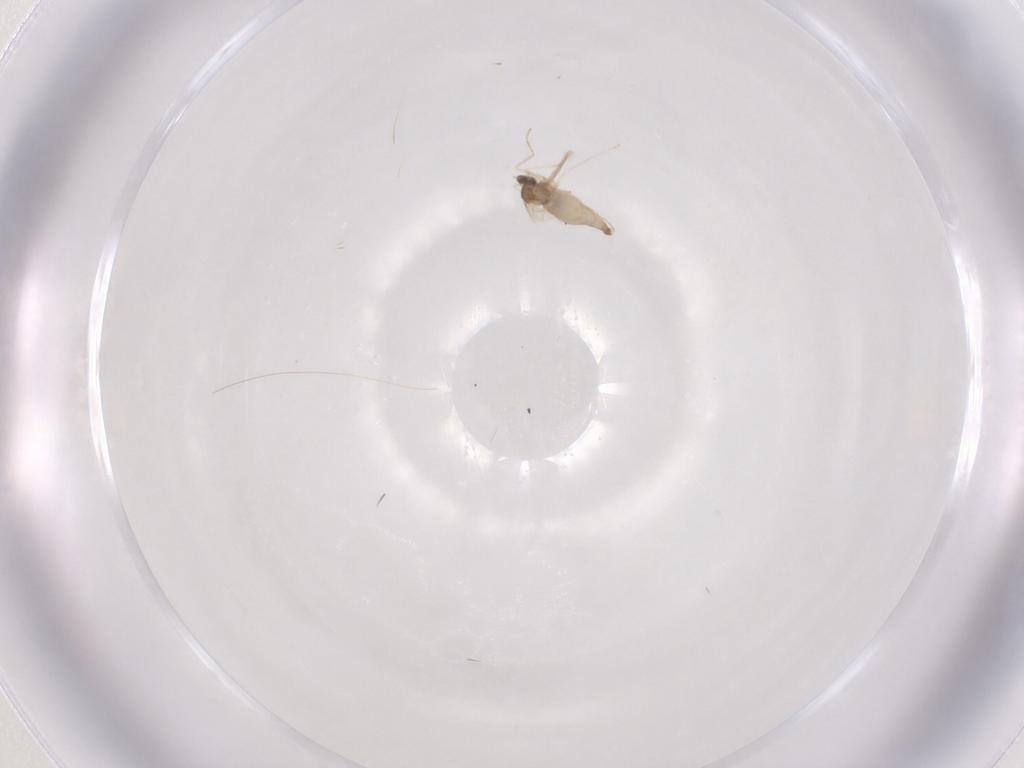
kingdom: Animalia
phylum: Arthropoda
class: Insecta
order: Diptera
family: Cecidomyiidae
